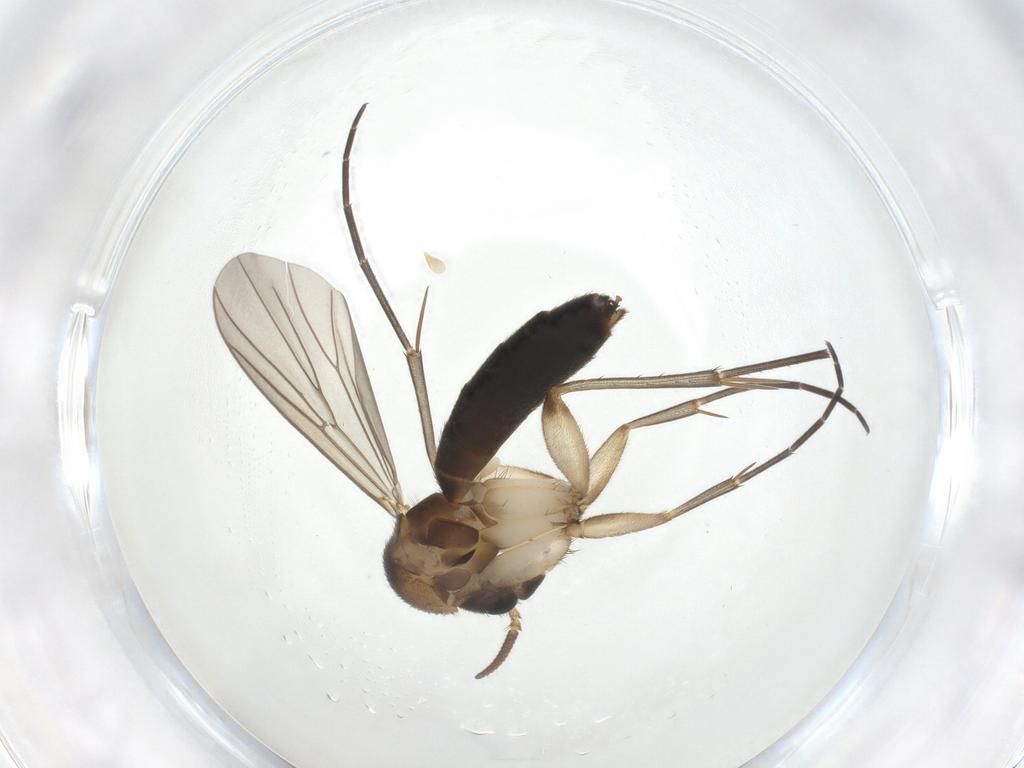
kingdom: Animalia
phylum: Arthropoda
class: Insecta
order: Diptera
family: Mycetophilidae
